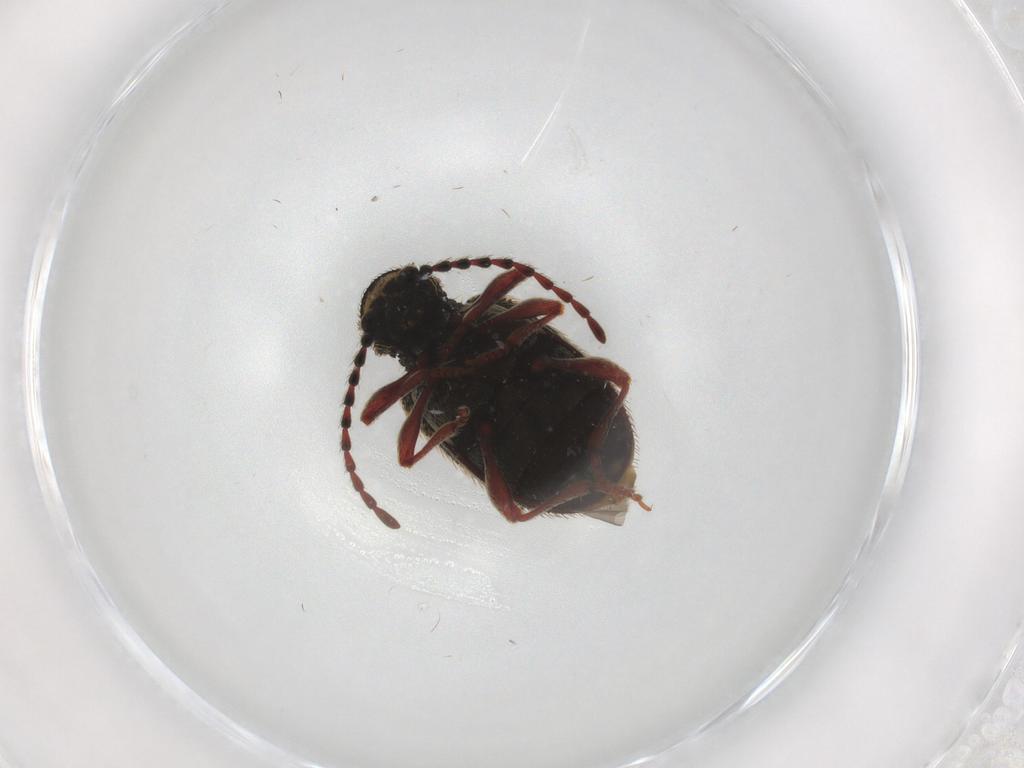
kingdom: Animalia
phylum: Arthropoda
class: Insecta
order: Coleoptera
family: Lycidae
